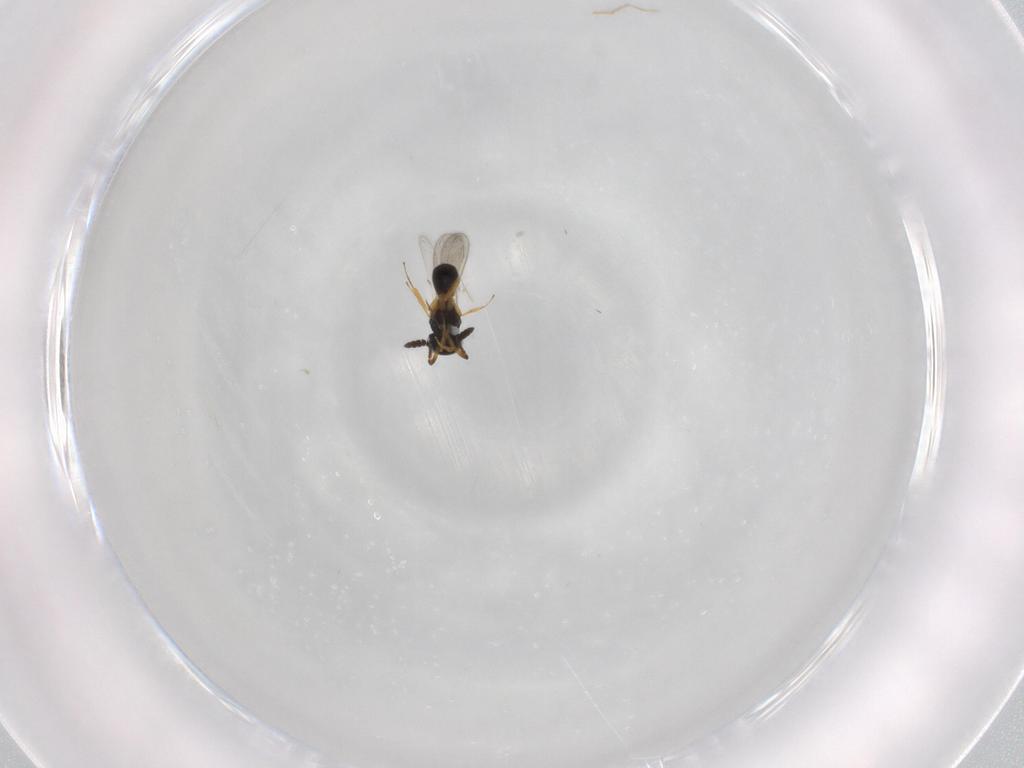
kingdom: Animalia
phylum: Arthropoda
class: Insecta
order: Hymenoptera
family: Scelionidae
